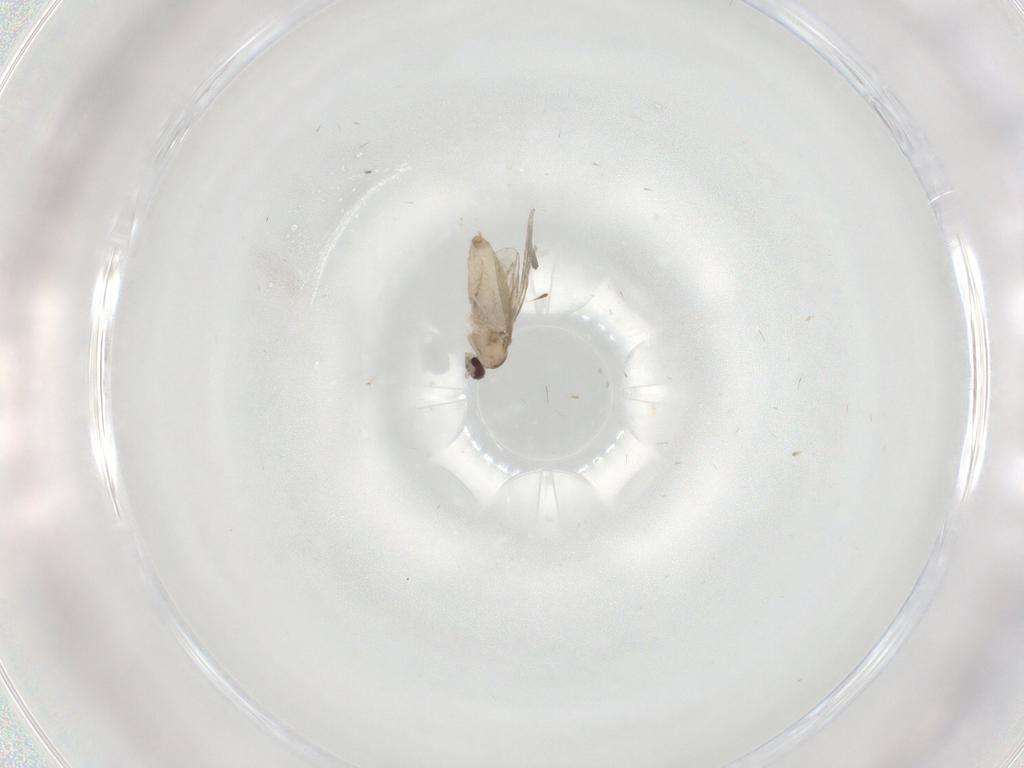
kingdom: Animalia
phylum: Arthropoda
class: Insecta
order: Diptera
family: Cecidomyiidae
